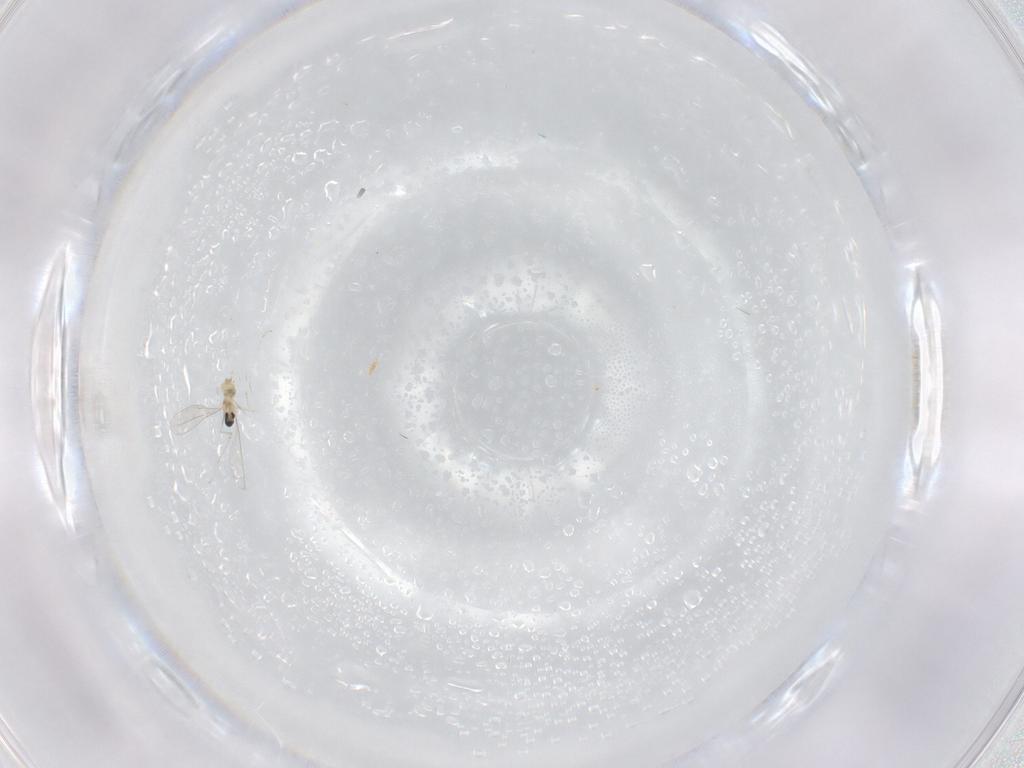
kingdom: Animalia
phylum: Arthropoda
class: Insecta
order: Diptera
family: Cecidomyiidae
